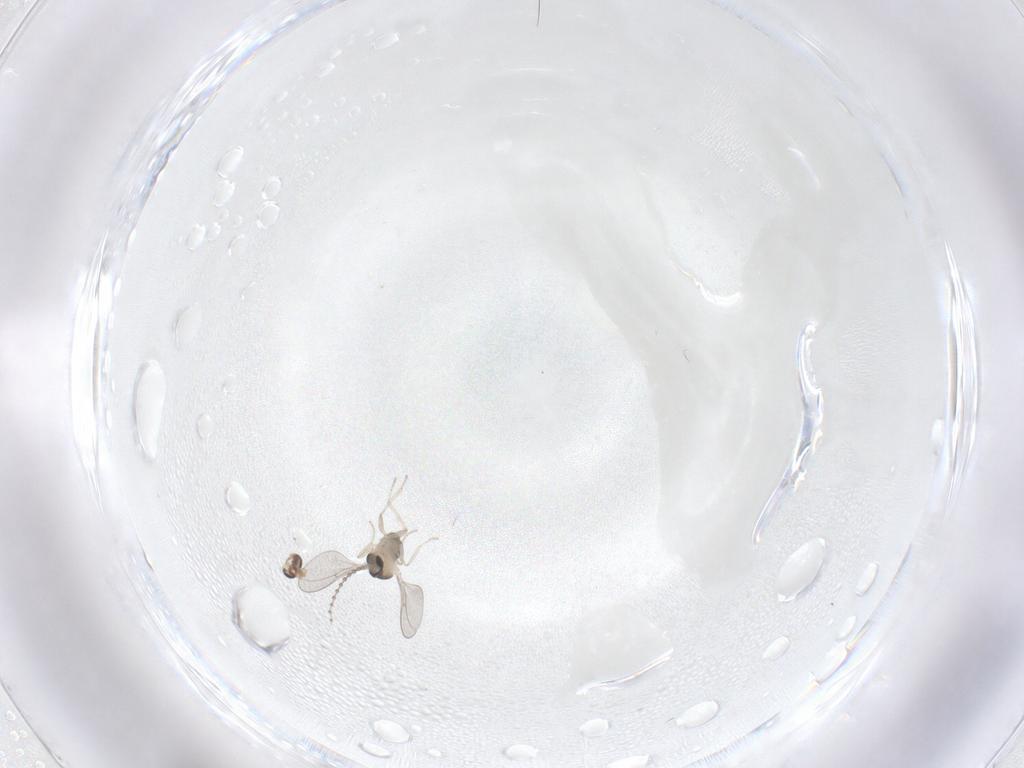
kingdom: Animalia
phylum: Arthropoda
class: Insecta
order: Diptera
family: Cecidomyiidae
